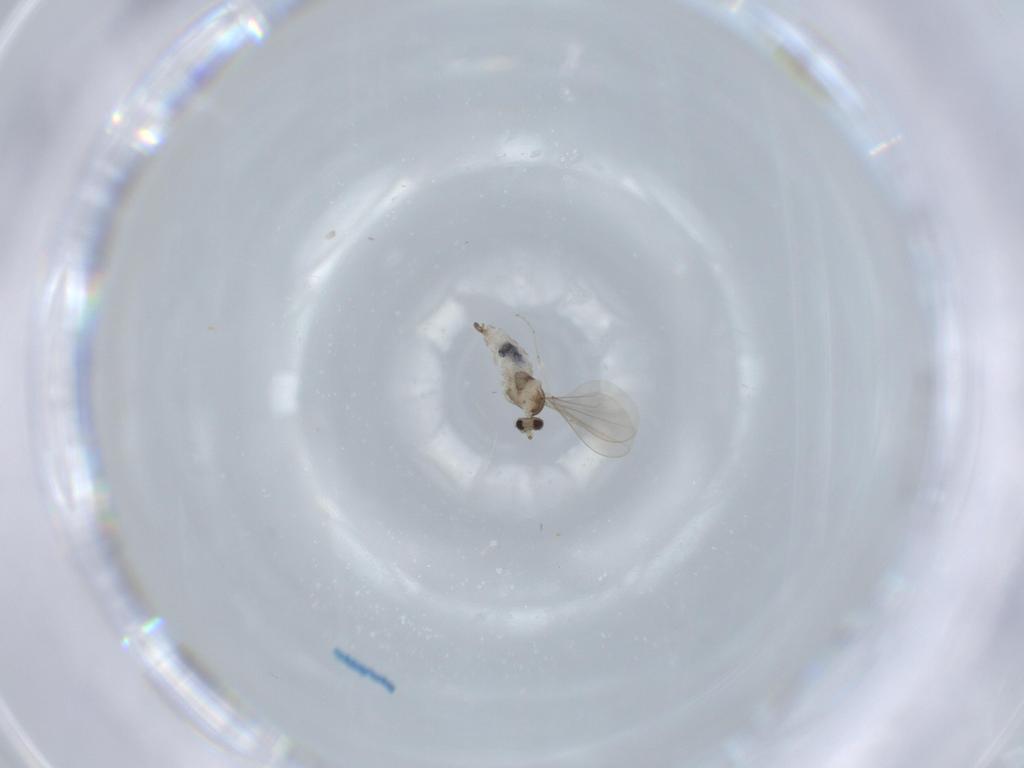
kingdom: Animalia
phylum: Arthropoda
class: Insecta
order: Diptera
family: Cecidomyiidae
